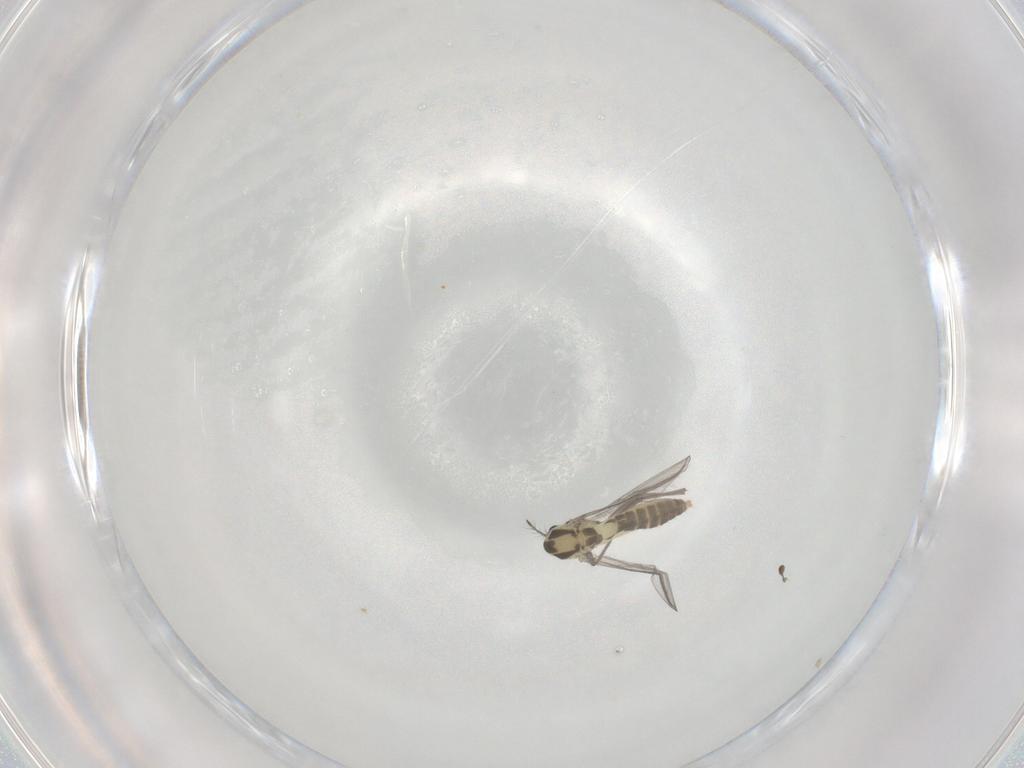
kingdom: Animalia
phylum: Arthropoda
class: Insecta
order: Diptera
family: Chironomidae
